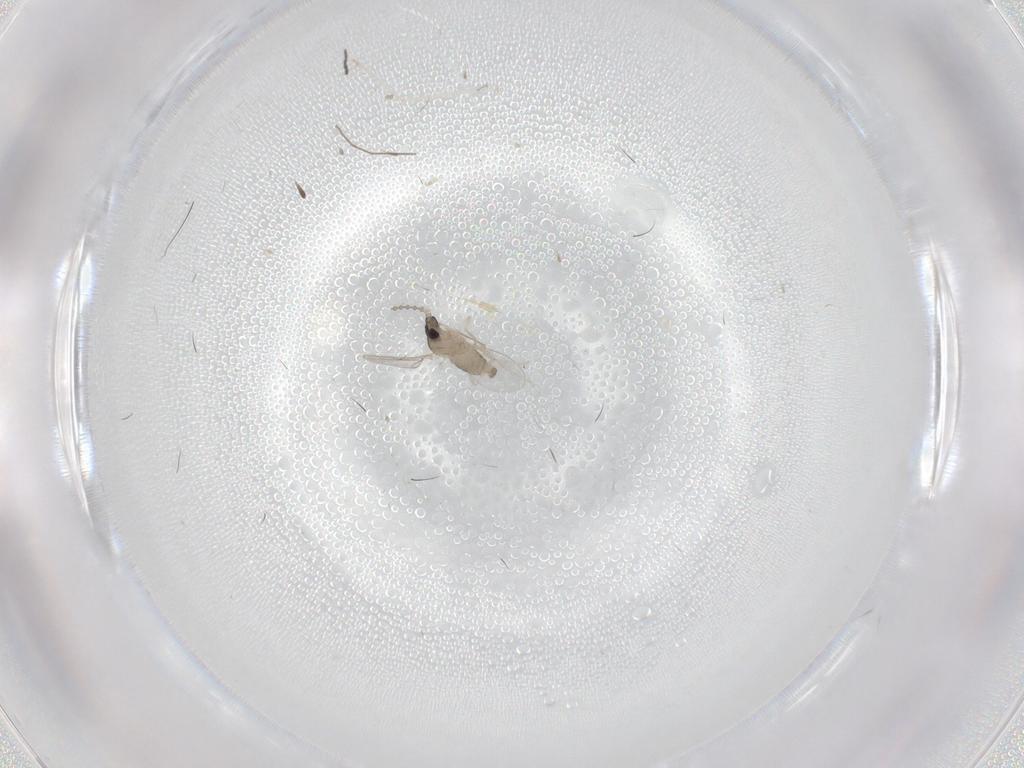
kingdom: Animalia
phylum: Arthropoda
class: Insecta
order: Diptera
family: Cecidomyiidae
